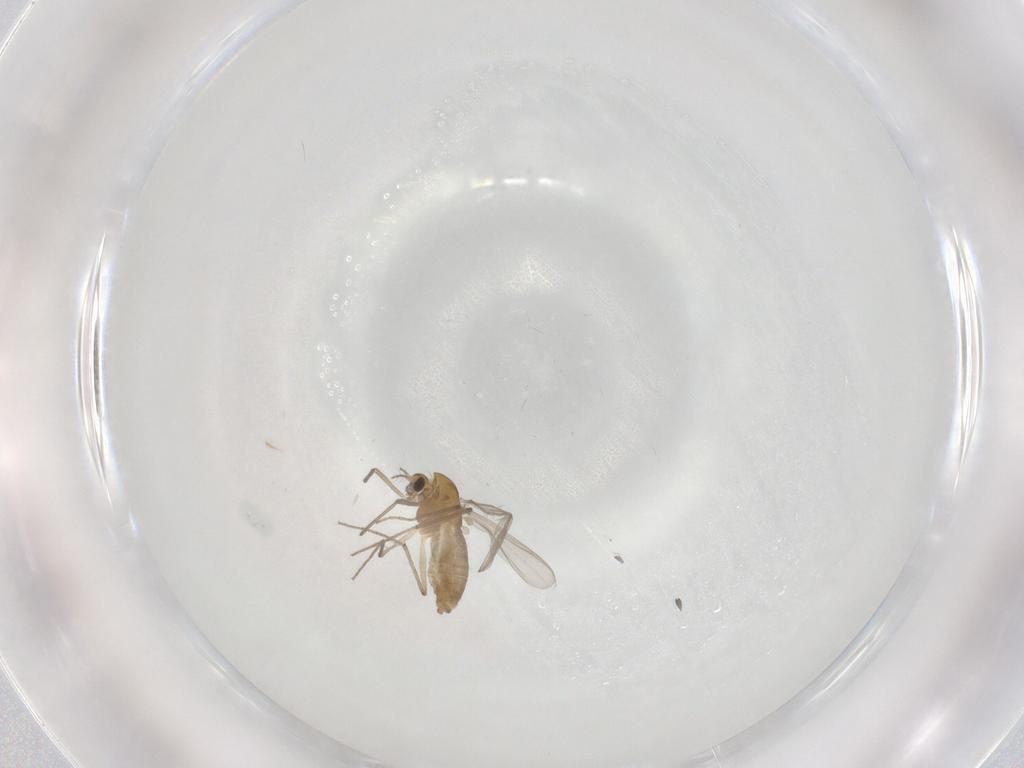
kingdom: Animalia
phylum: Arthropoda
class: Insecta
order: Diptera
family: Chironomidae
